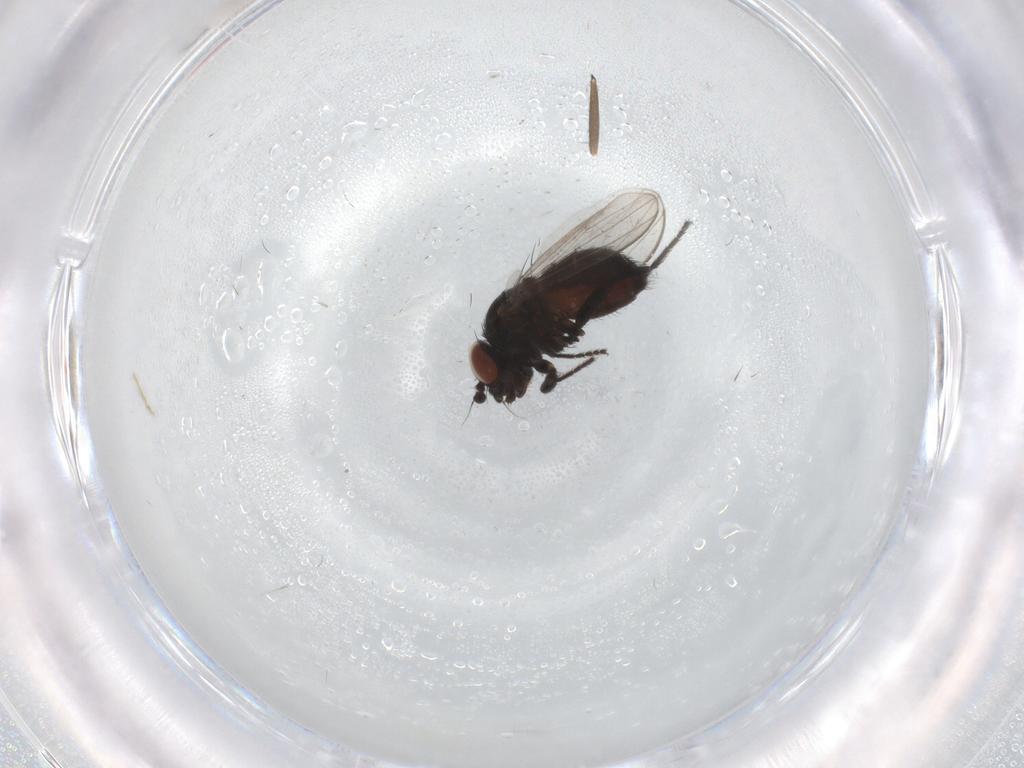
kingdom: Animalia
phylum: Arthropoda
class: Insecta
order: Diptera
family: Milichiidae
